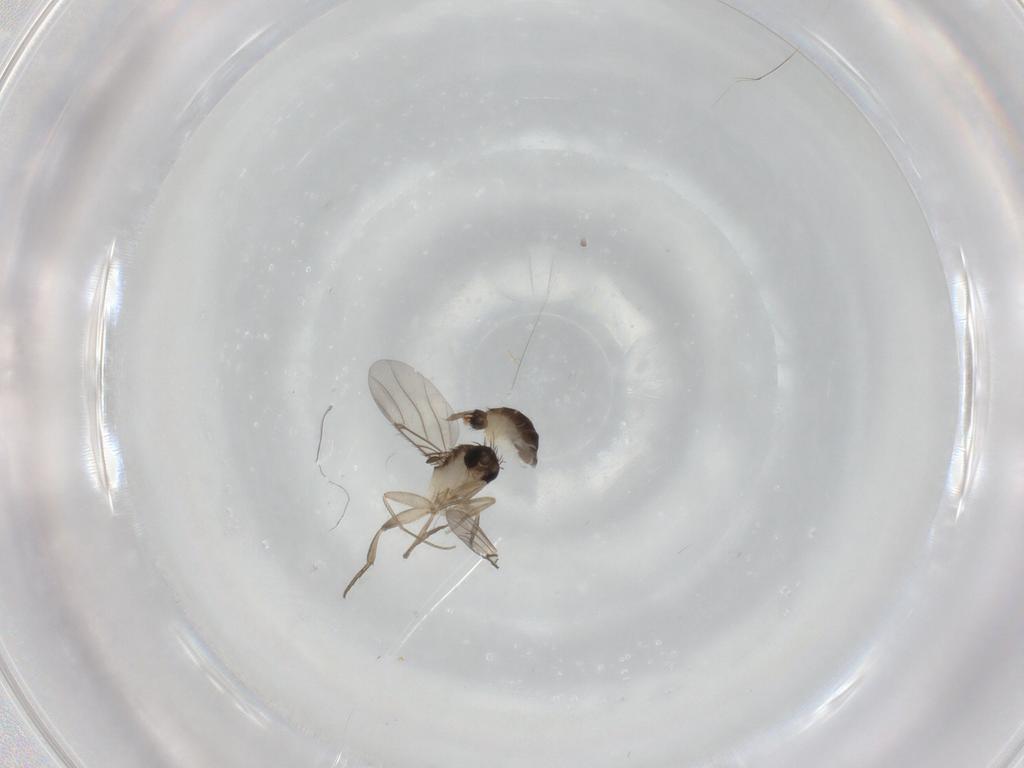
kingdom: Animalia
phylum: Arthropoda
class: Insecta
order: Diptera
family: Phoridae
